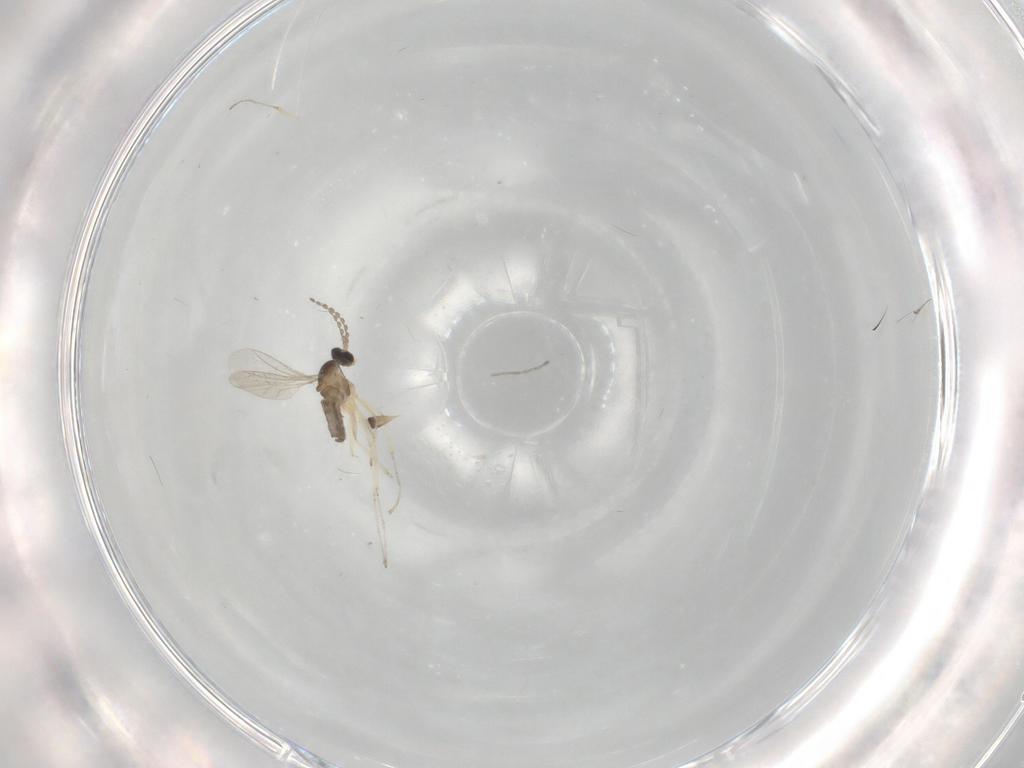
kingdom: Animalia
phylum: Arthropoda
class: Insecta
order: Diptera
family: Cecidomyiidae
